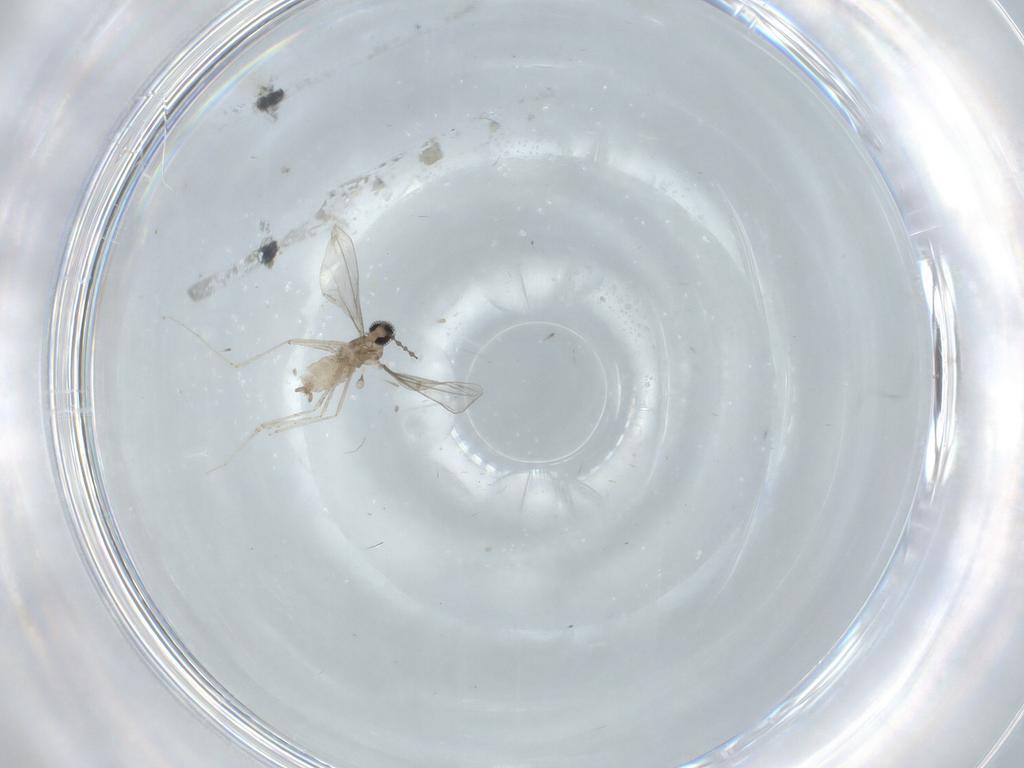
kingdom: Animalia
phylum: Arthropoda
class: Insecta
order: Diptera
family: Cecidomyiidae
